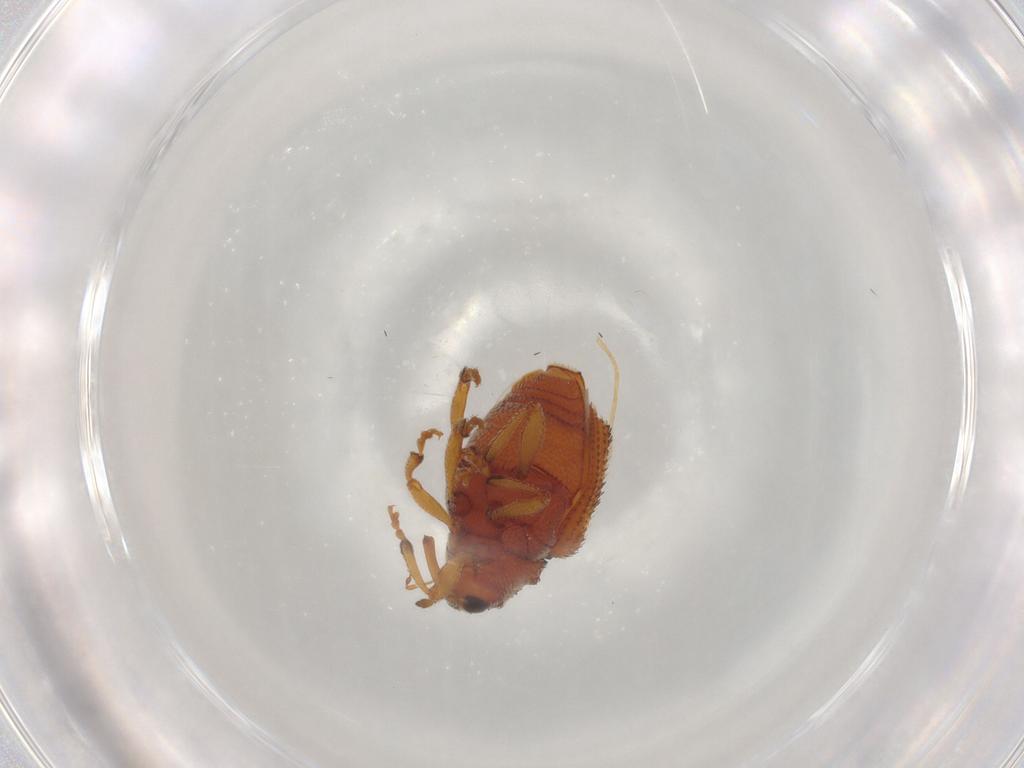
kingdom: Animalia
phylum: Arthropoda
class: Insecta
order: Coleoptera
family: Curculionidae
